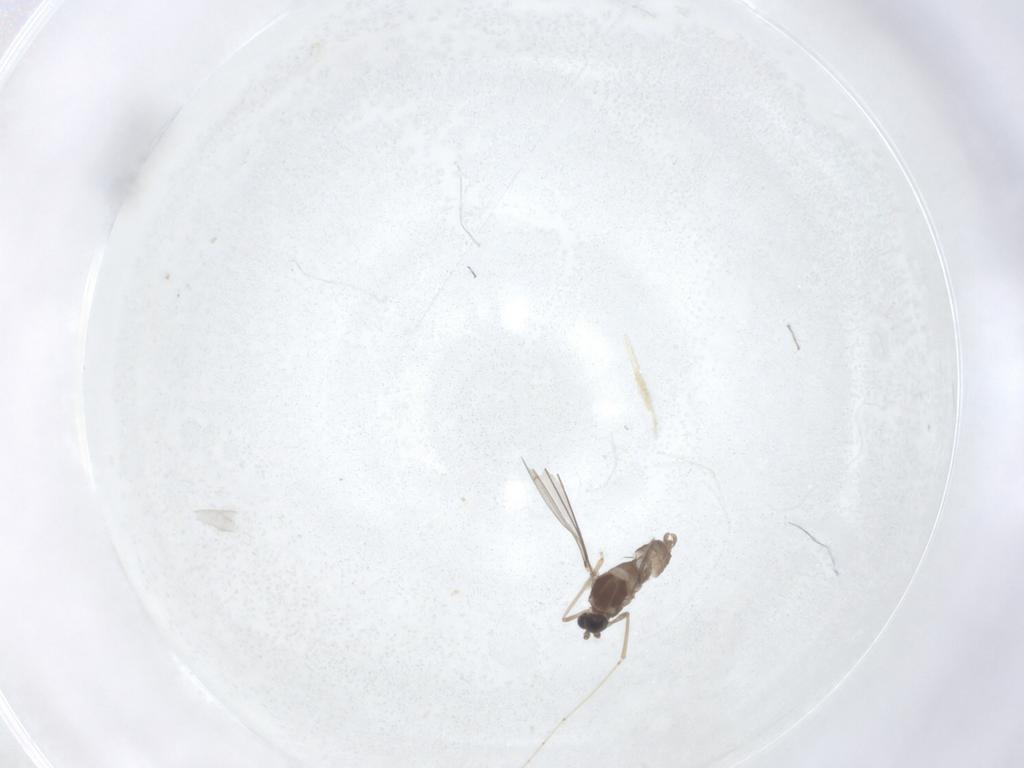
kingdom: Animalia
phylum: Arthropoda
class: Insecta
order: Diptera
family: Cecidomyiidae
